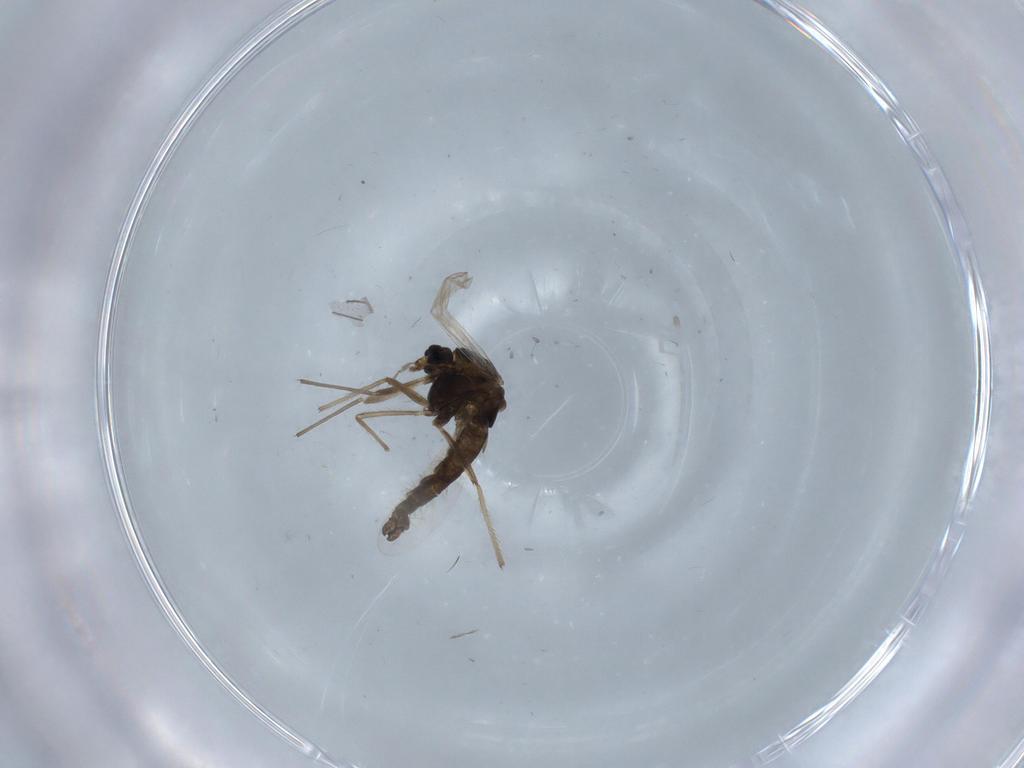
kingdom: Animalia
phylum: Arthropoda
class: Insecta
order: Diptera
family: Chironomidae
